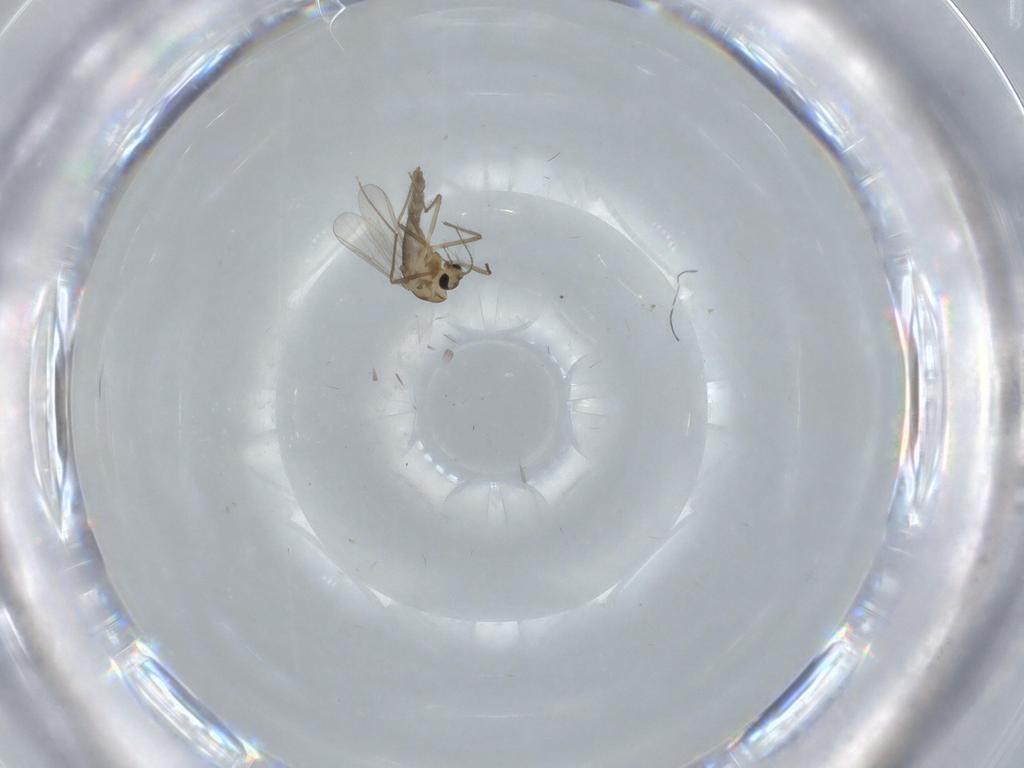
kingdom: Animalia
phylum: Arthropoda
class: Insecta
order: Diptera
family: Chironomidae
